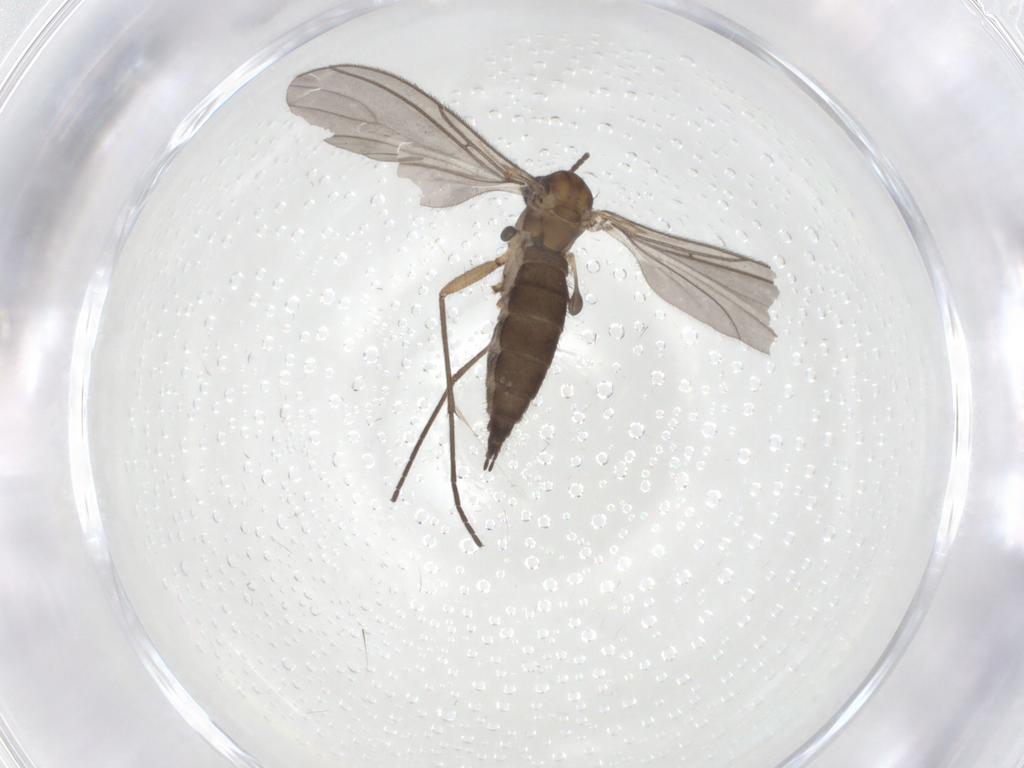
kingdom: Animalia
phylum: Arthropoda
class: Insecta
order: Diptera
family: Sciaridae
